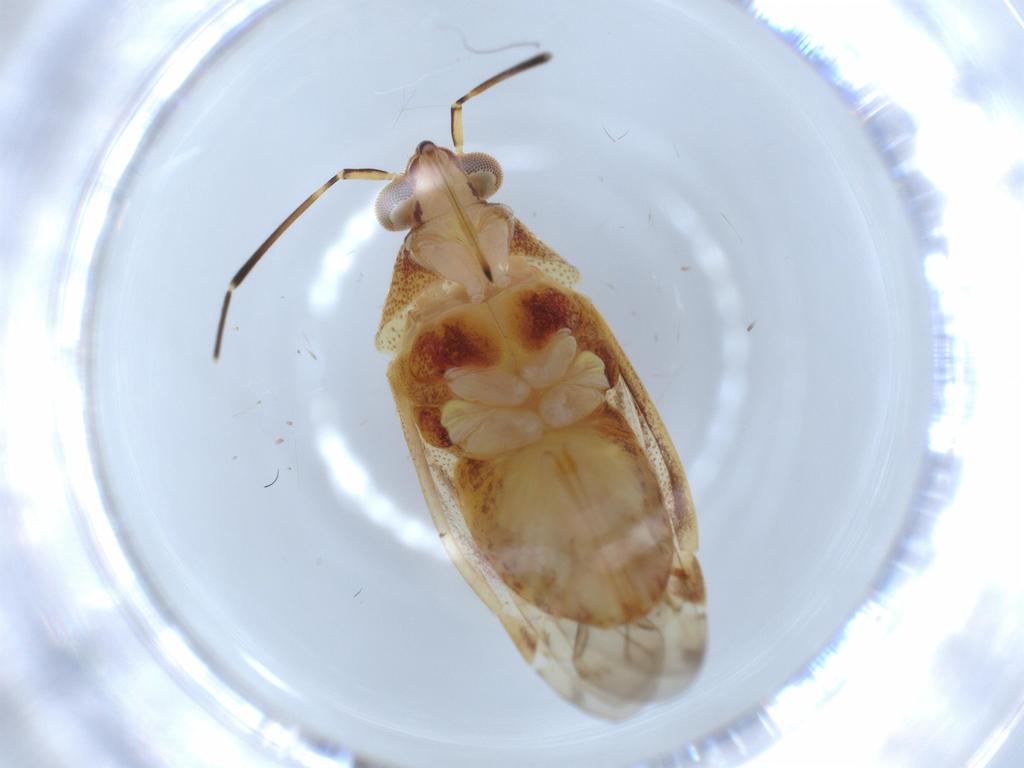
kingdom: Animalia
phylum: Arthropoda
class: Insecta
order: Hemiptera
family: Miridae
